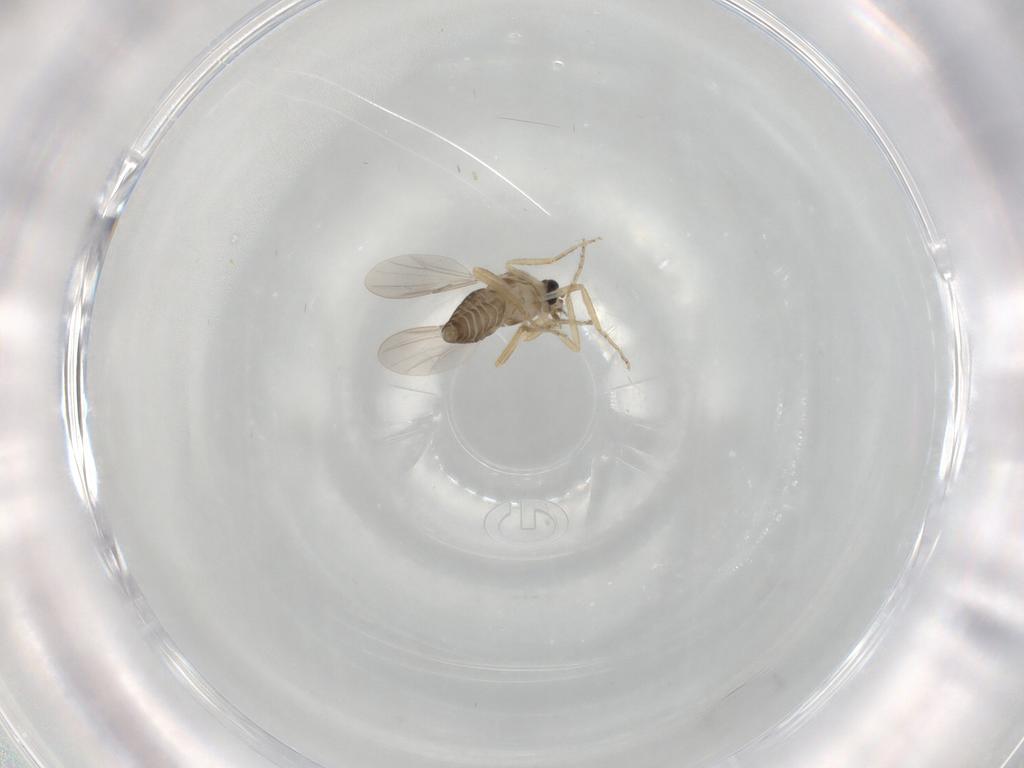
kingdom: Animalia
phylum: Arthropoda
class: Insecta
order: Diptera
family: Ceratopogonidae
